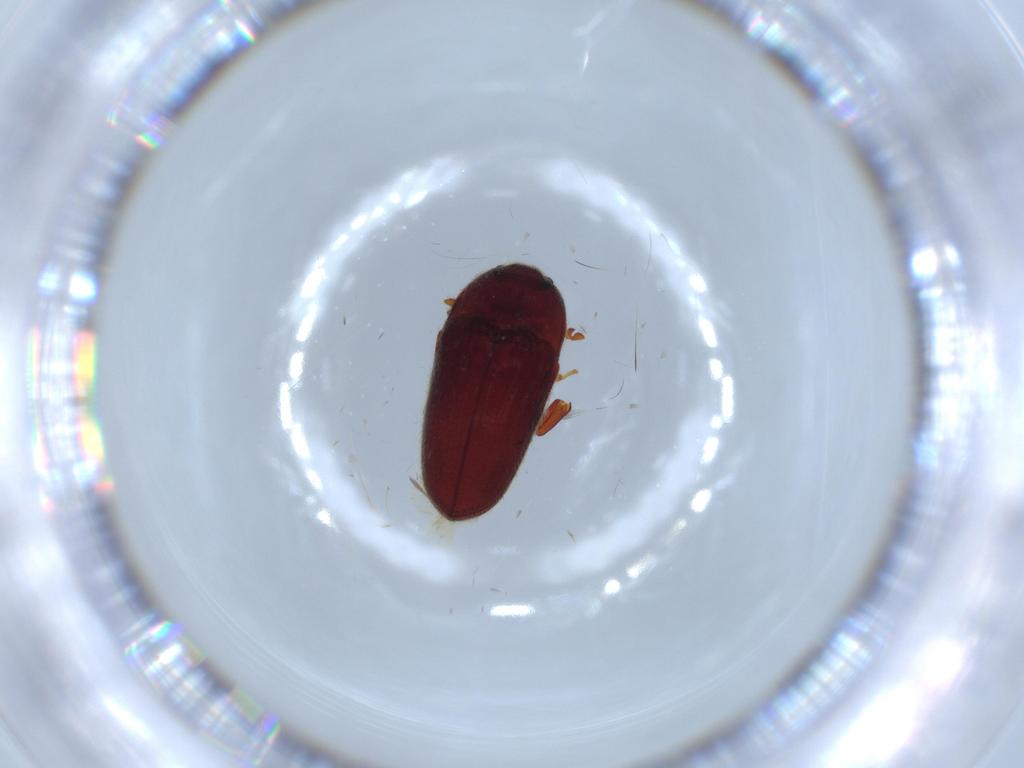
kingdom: Animalia
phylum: Arthropoda
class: Insecta
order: Coleoptera
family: Throscidae
